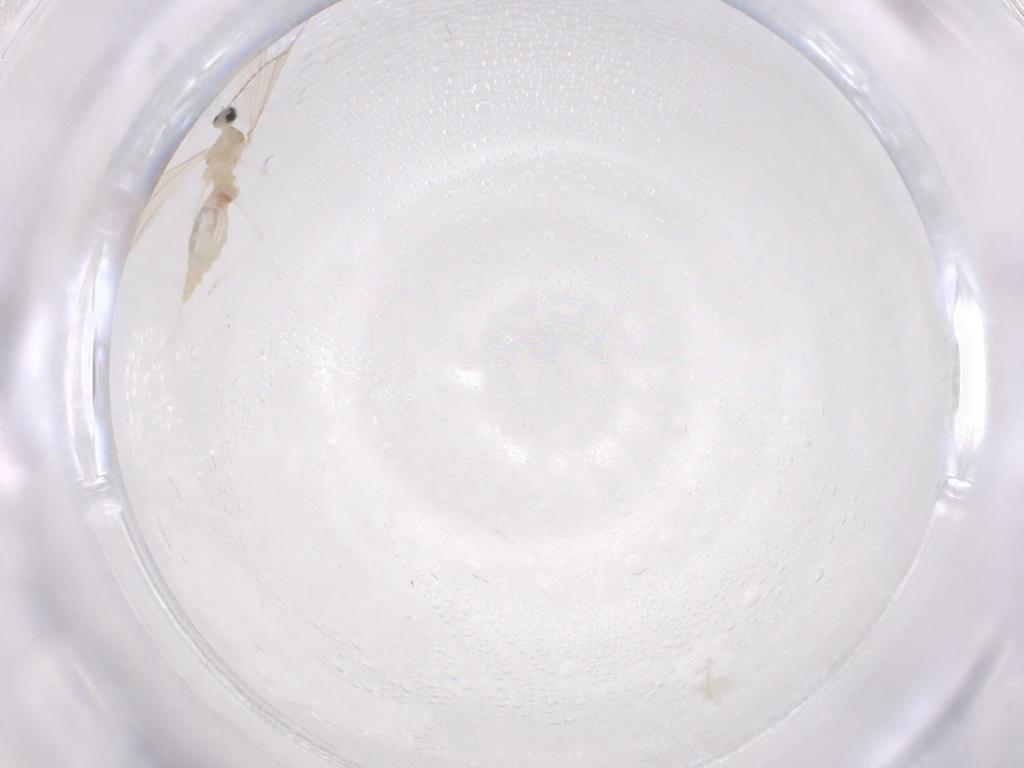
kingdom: Animalia
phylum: Arthropoda
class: Insecta
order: Diptera
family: Cecidomyiidae
